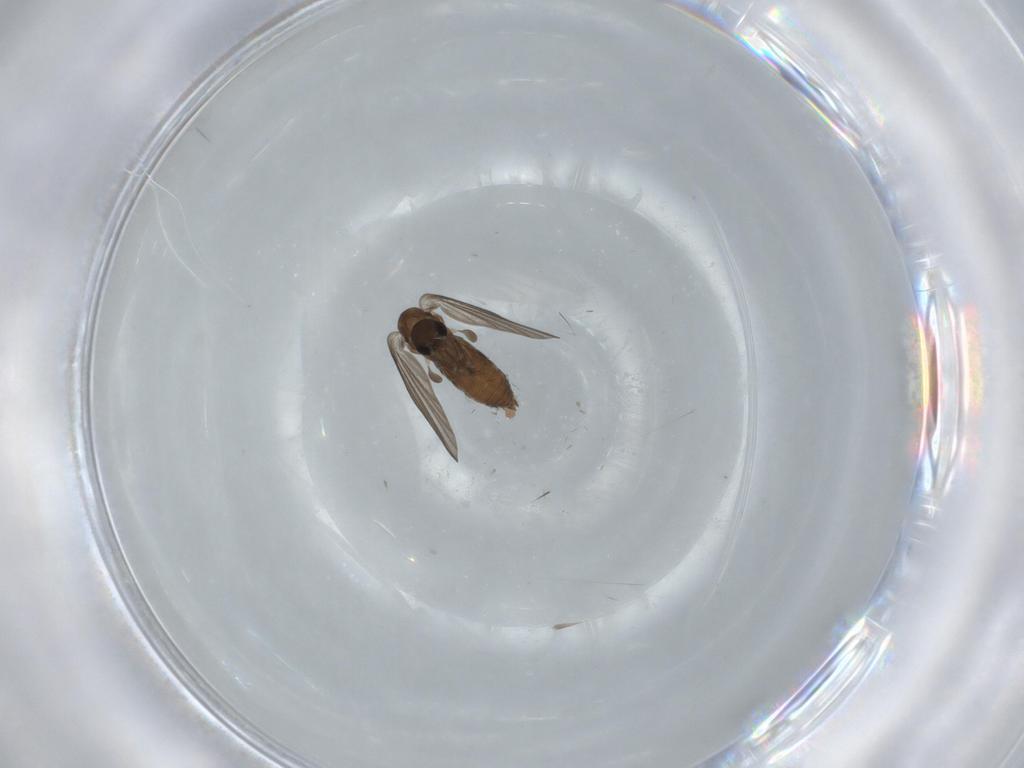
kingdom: Animalia
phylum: Arthropoda
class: Insecta
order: Diptera
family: Psychodidae
